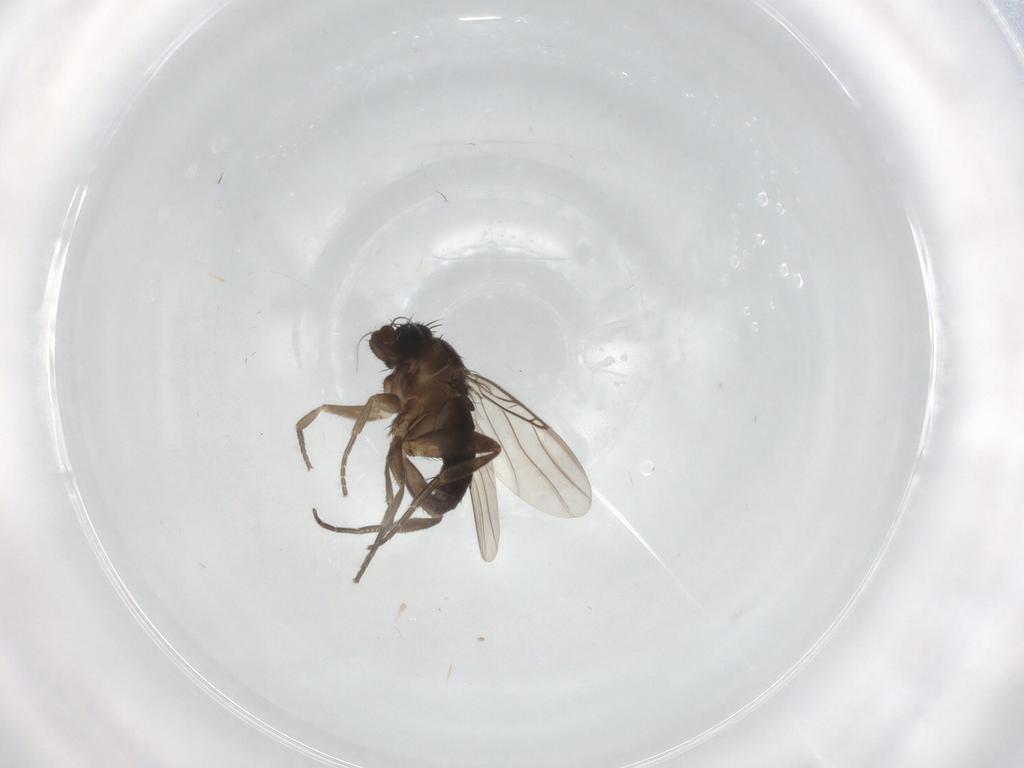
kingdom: Animalia
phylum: Arthropoda
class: Insecta
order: Diptera
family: Phoridae
